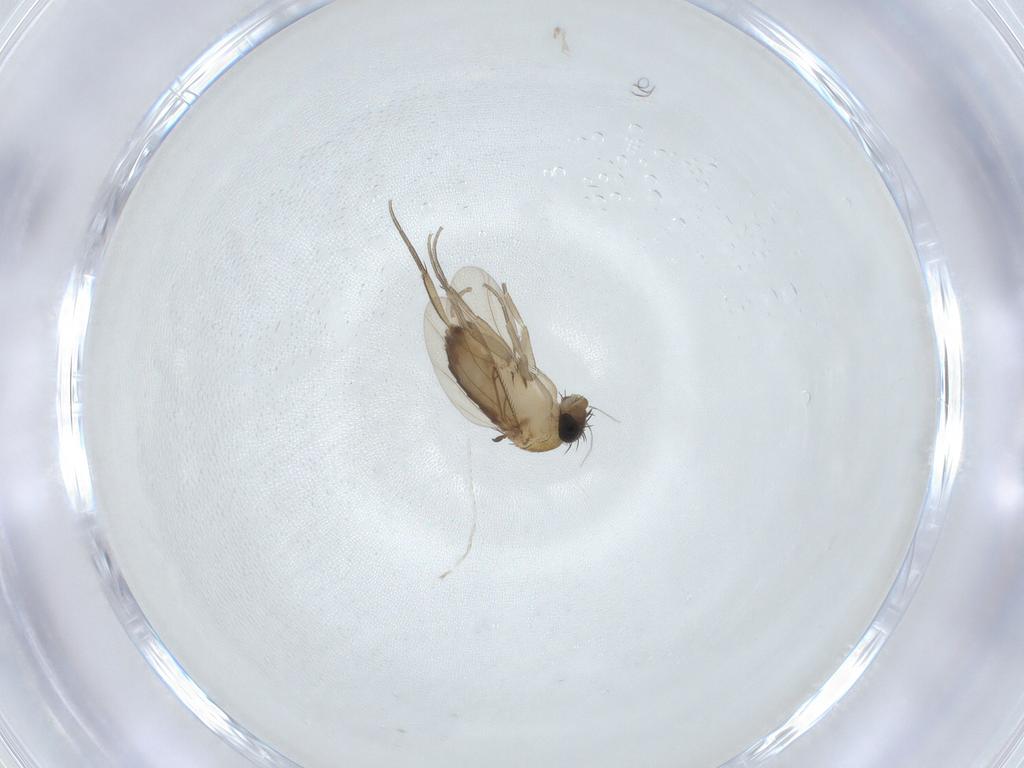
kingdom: Animalia
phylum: Arthropoda
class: Insecta
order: Diptera
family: Phoridae
